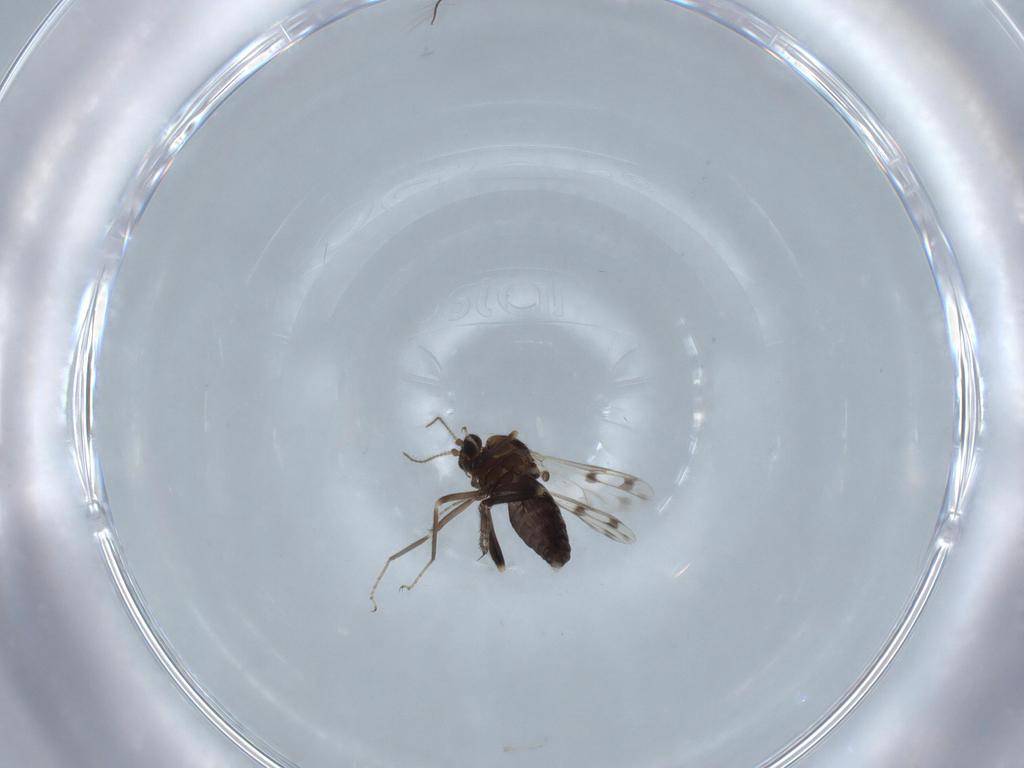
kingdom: Animalia
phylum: Arthropoda
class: Insecta
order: Diptera
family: Ceratopogonidae
